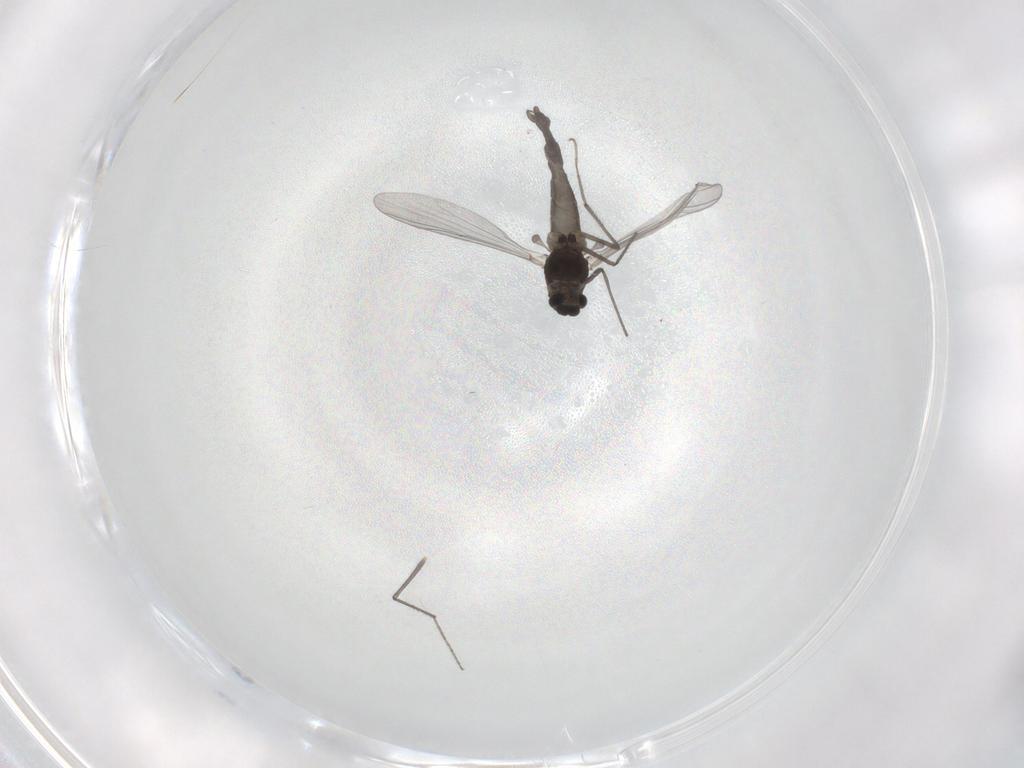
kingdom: Animalia
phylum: Arthropoda
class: Insecta
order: Diptera
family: Chironomidae
